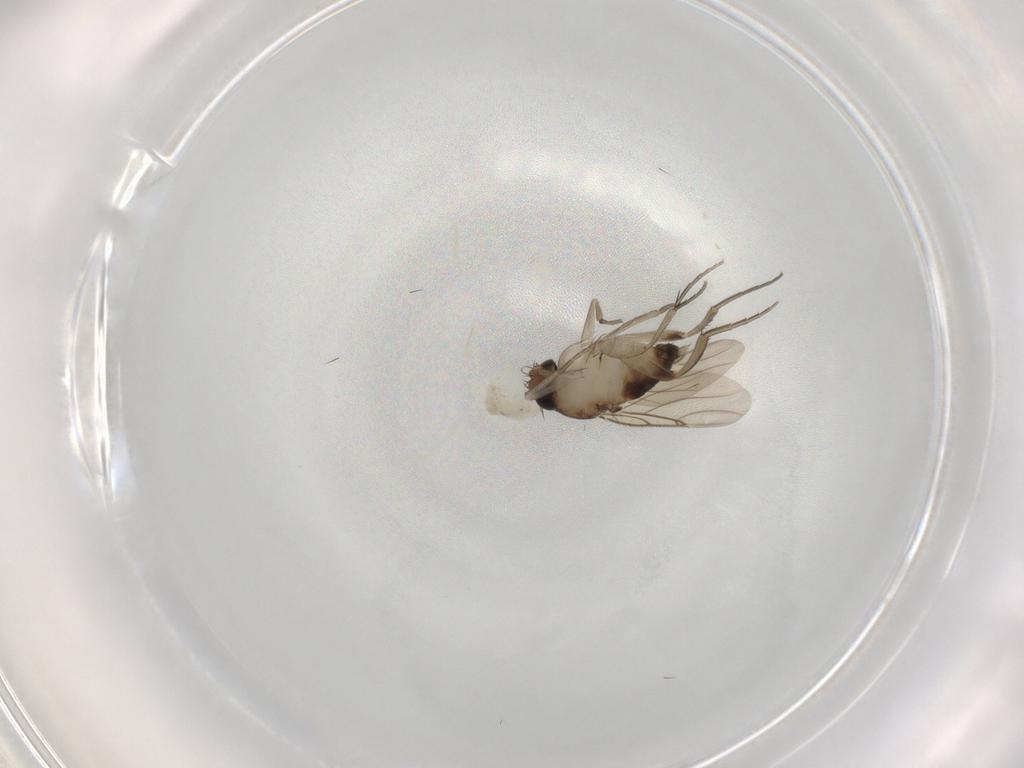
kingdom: Animalia
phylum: Arthropoda
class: Insecta
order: Diptera
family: Phoridae
